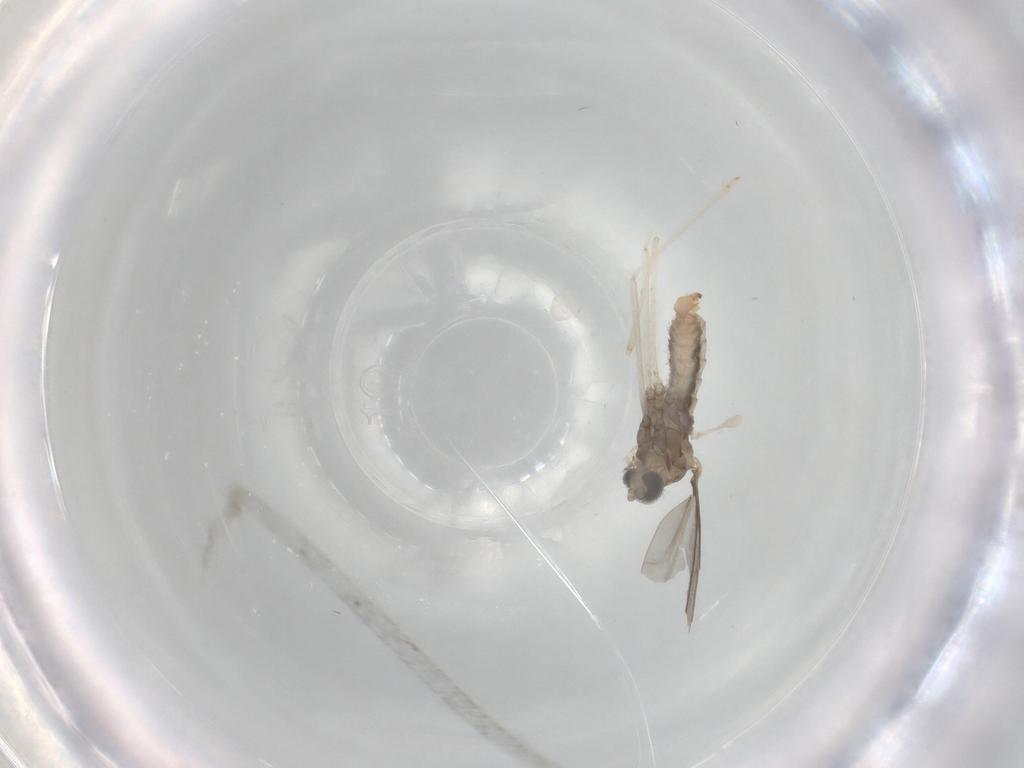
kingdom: Animalia
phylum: Arthropoda
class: Insecta
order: Diptera
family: Cecidomyiidae
